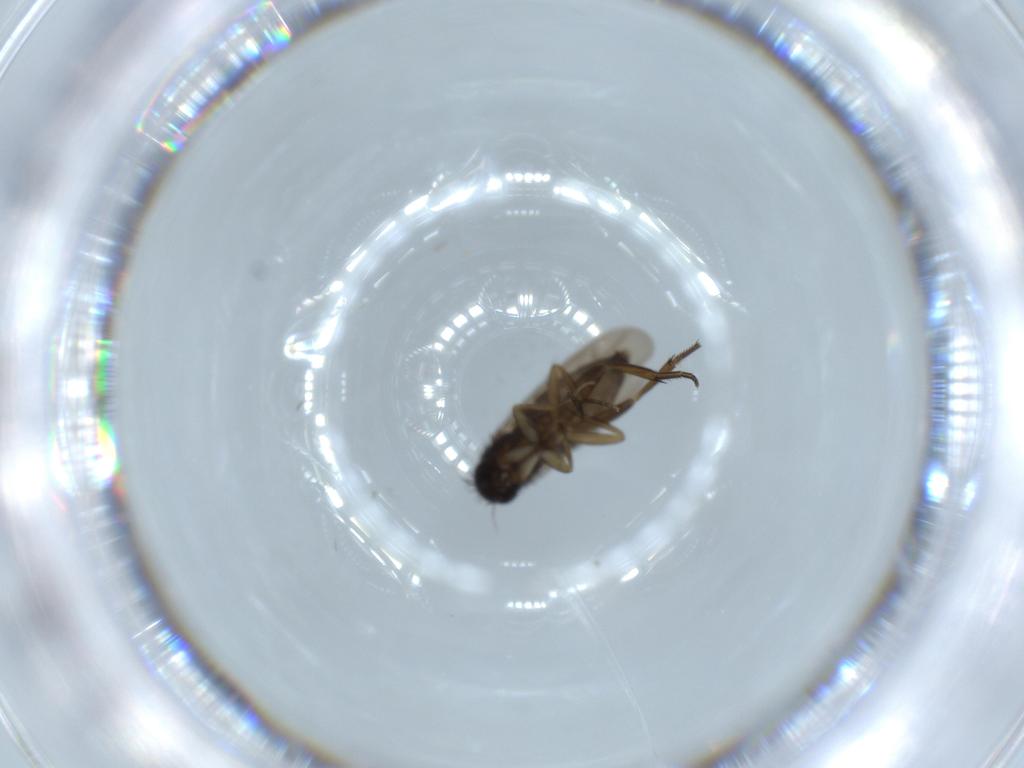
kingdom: Animalia
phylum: Arthropoda
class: Insecta
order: Diptera
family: Phoridae
